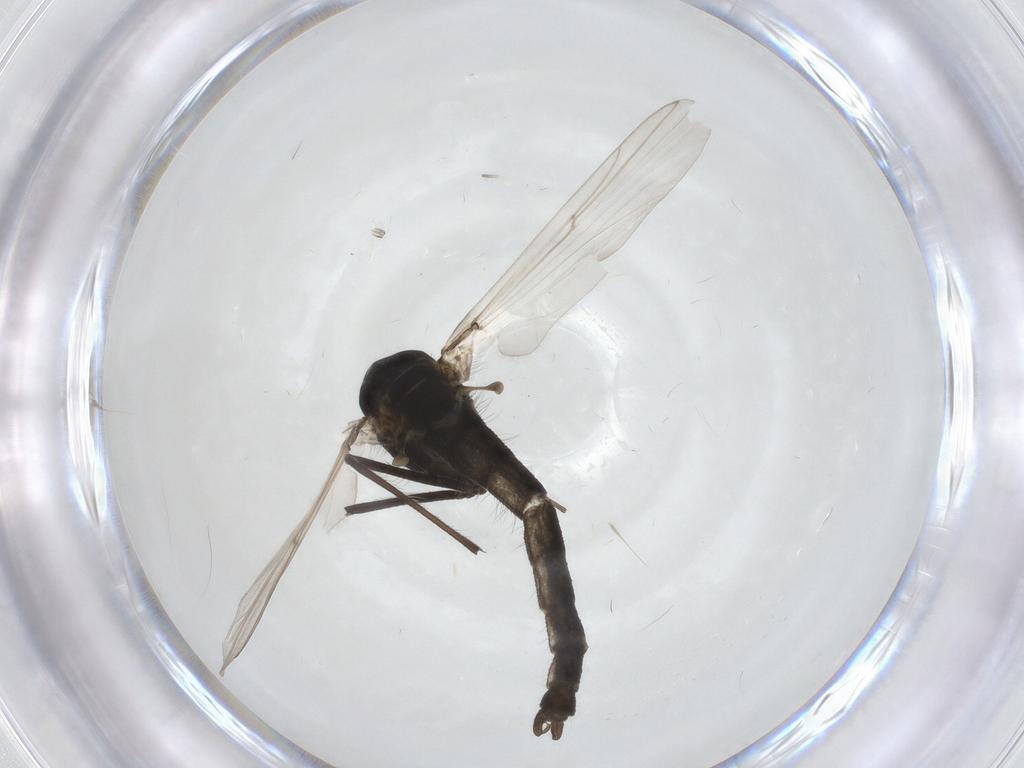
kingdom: Animalia
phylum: Arthropoda
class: Insecta
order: Diptera
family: Chironomidae
